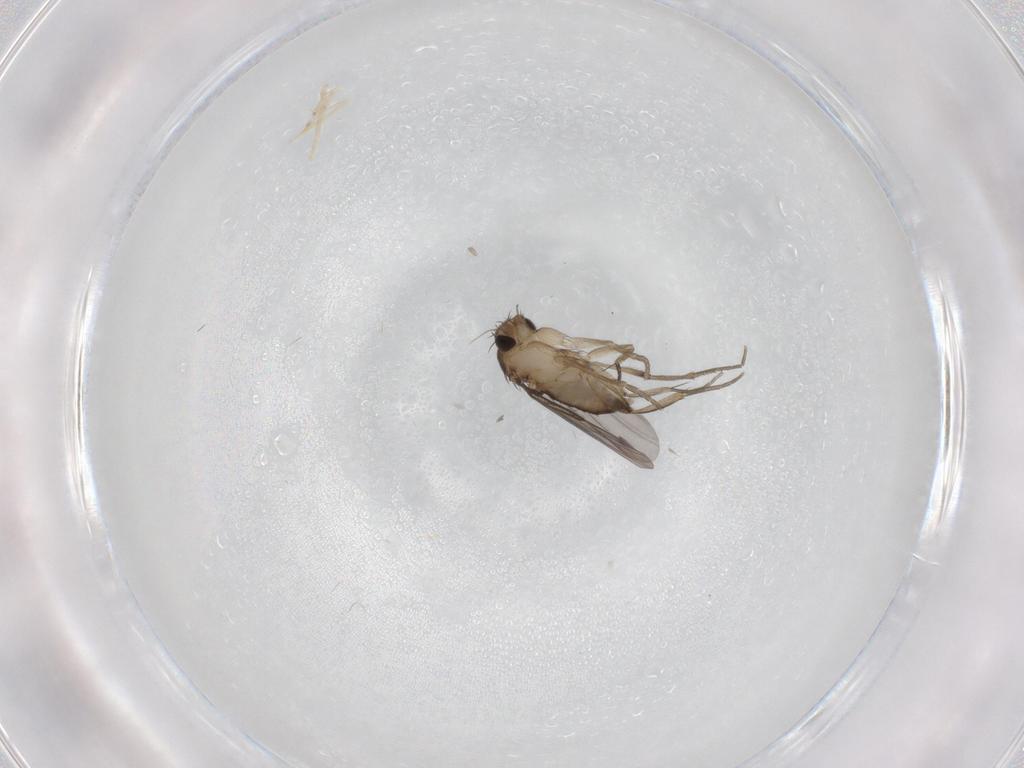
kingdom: Animalia
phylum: Arthropoda
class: Insecta
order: Diptera
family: Phoridae
